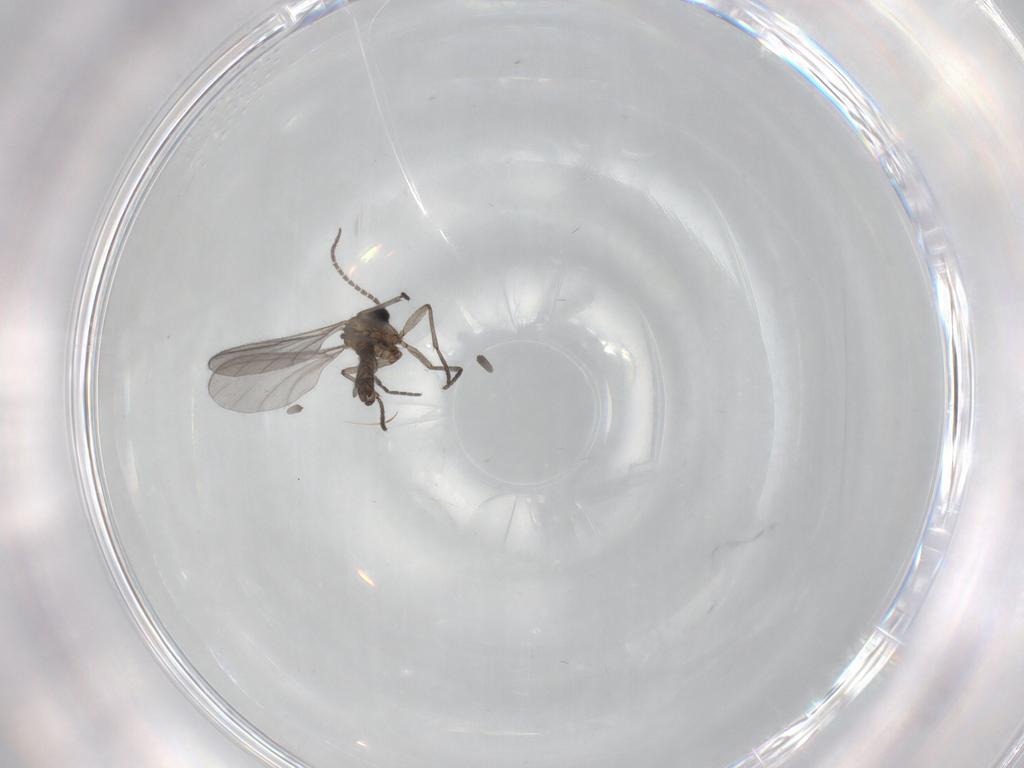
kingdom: Animalia
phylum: Arthropoda
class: Insecta
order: Diptera
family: Sciaridae
